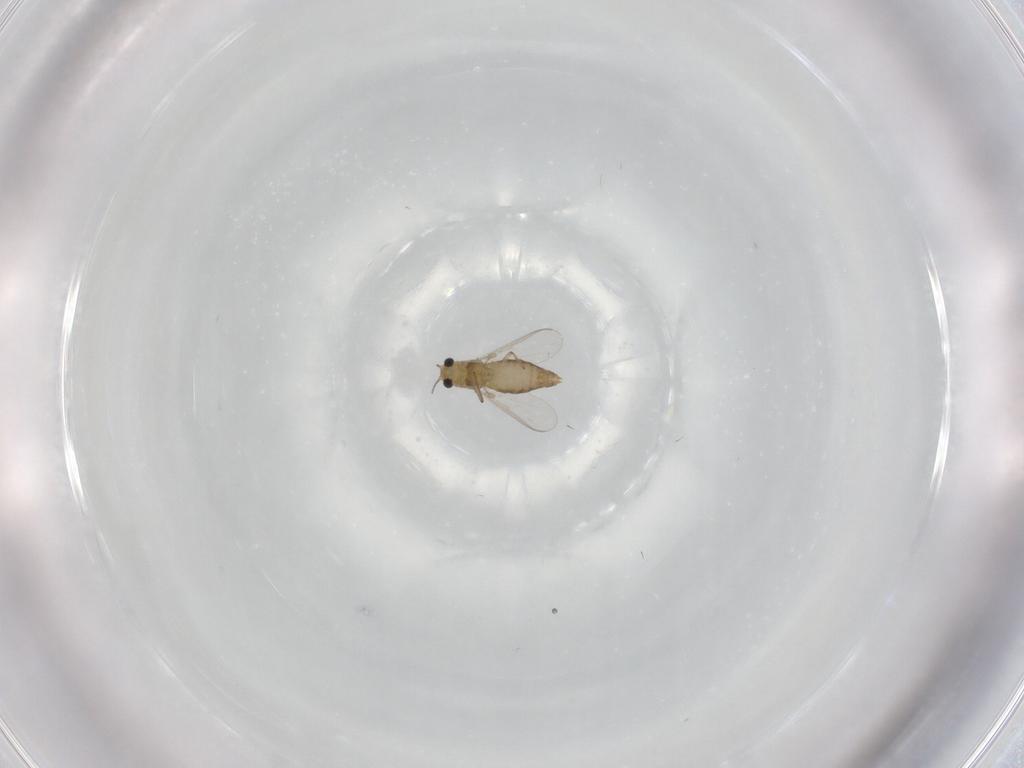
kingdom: Animalia
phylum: Arthropoda
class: Insecta
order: Diptera
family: Chironomidae
